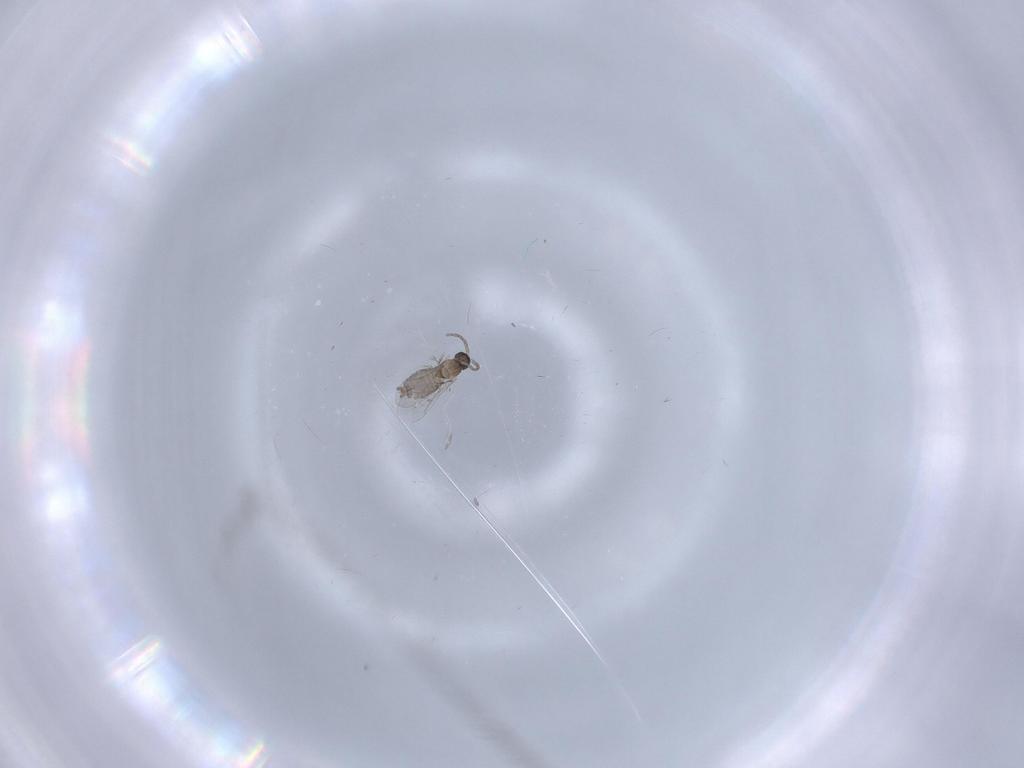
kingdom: Animalia
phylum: Arthropoda
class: Insecta
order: Diptera
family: Cecidomyiidae
